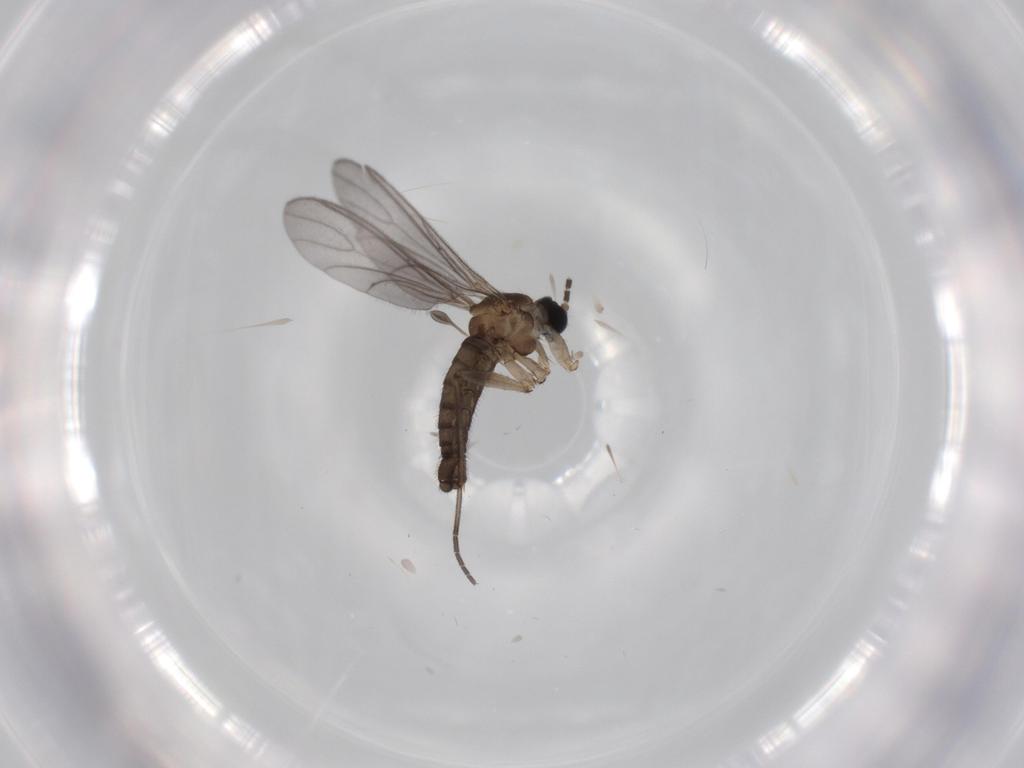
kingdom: Animalia
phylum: Arthropoda
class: Insecta
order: Diptera
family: Sciaridae
